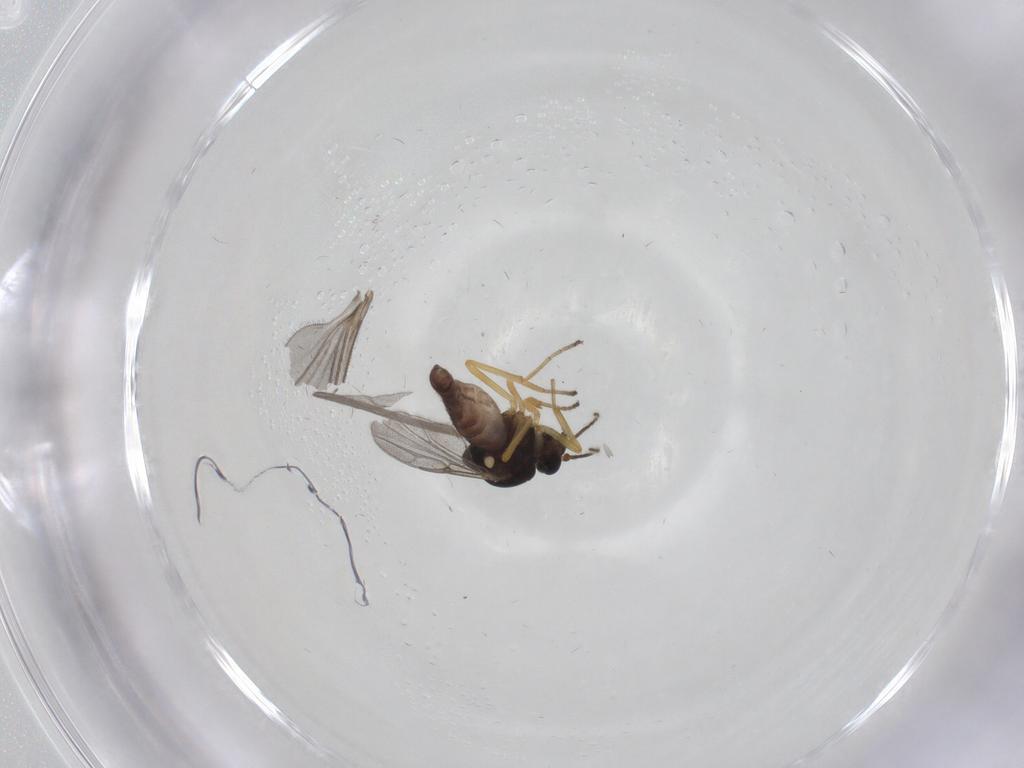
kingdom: Animalia
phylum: Arthropoda
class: Insecta
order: Diptera
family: Ceratopogonidae
